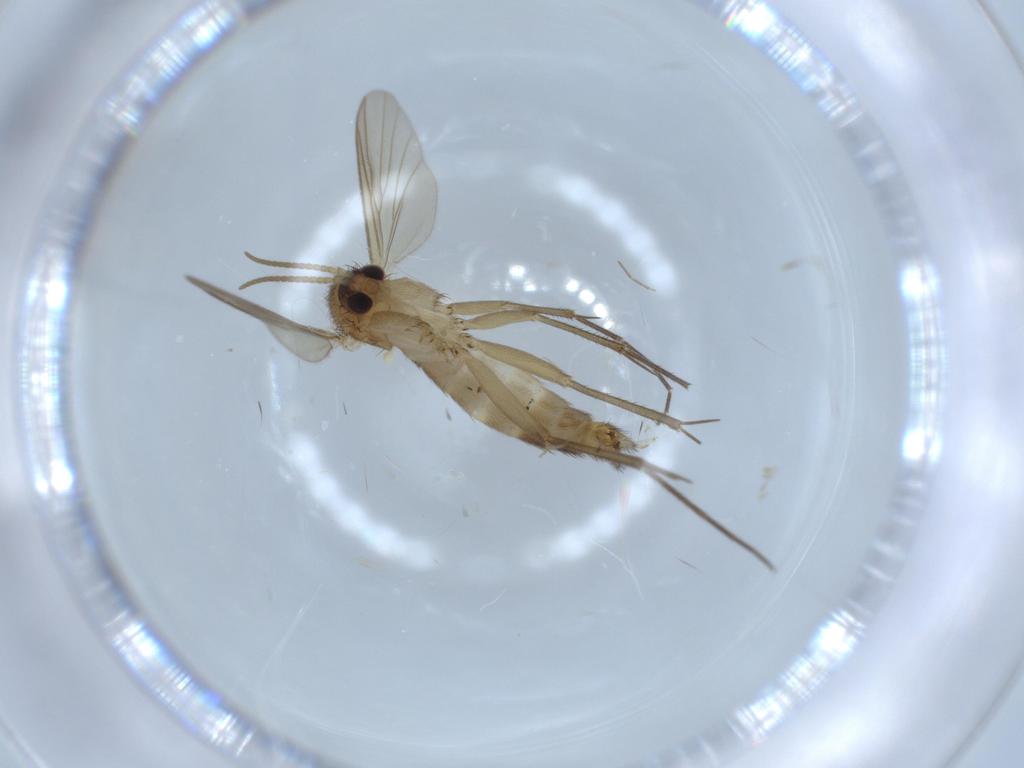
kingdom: Animalia
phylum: Arthropoda
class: Insecta
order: Diptera
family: Mycetophilidae
